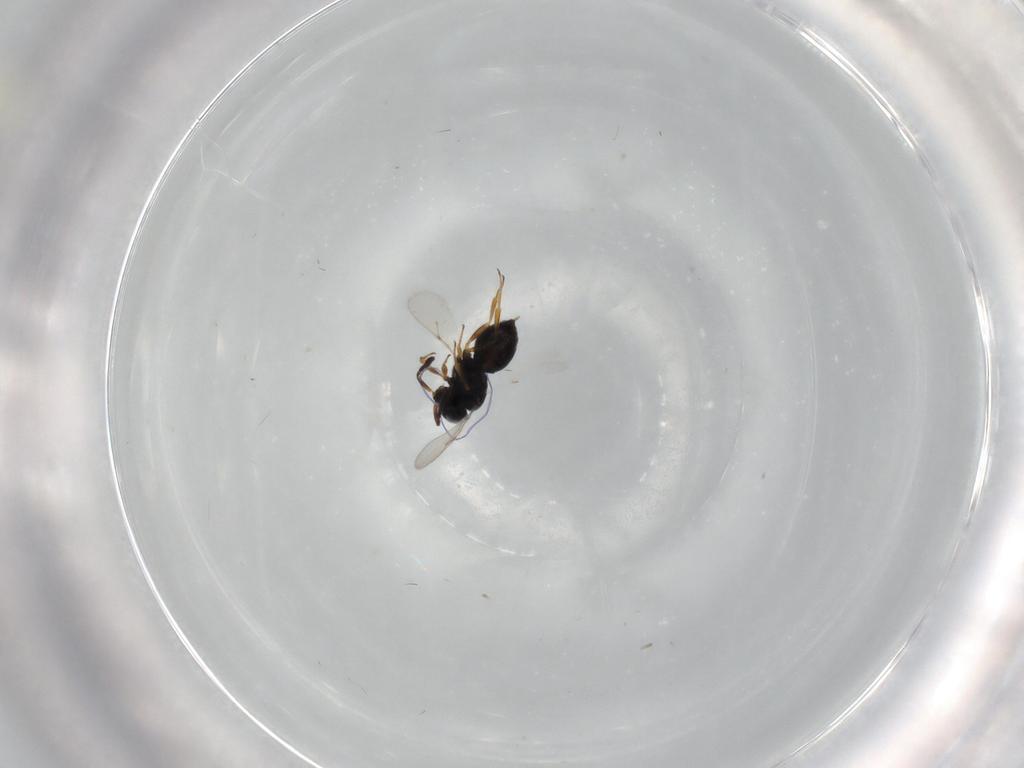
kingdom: Animalia
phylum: Arthropoda
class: Insecta
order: Hymenoptera
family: Scelionidae
